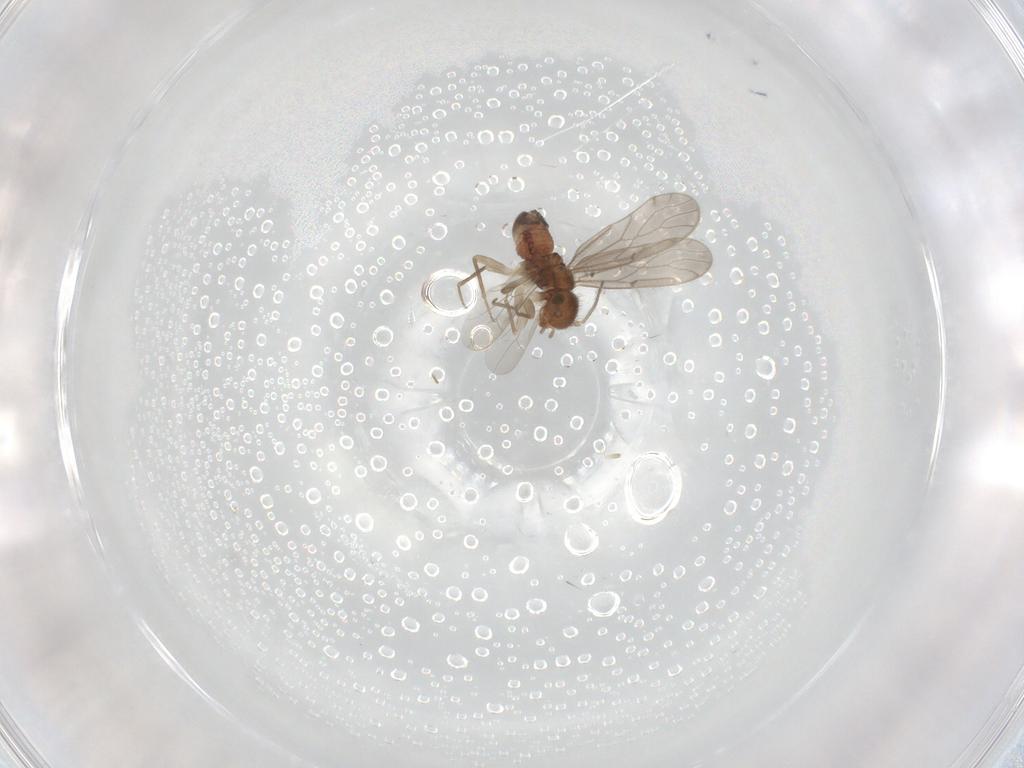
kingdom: Animalia
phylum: Arthropoda
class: Insecta
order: Psocodea
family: Ectopsocidae
